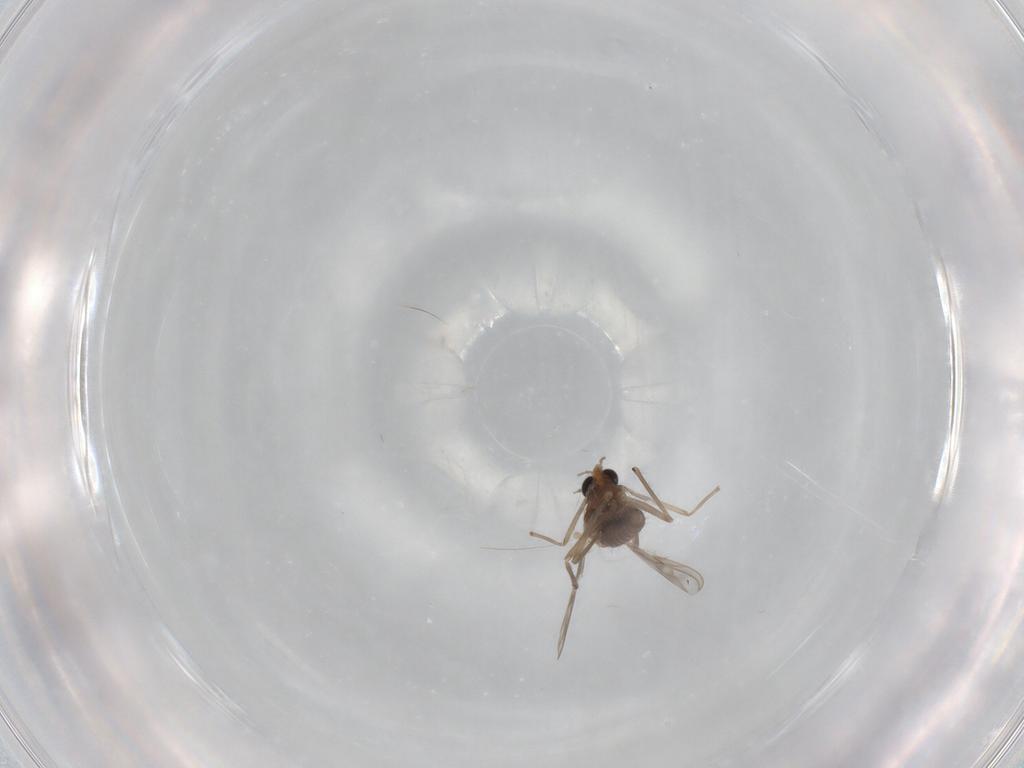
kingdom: Animalia
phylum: Arthropoda
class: Insecta
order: Diptera
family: Chironomidae
